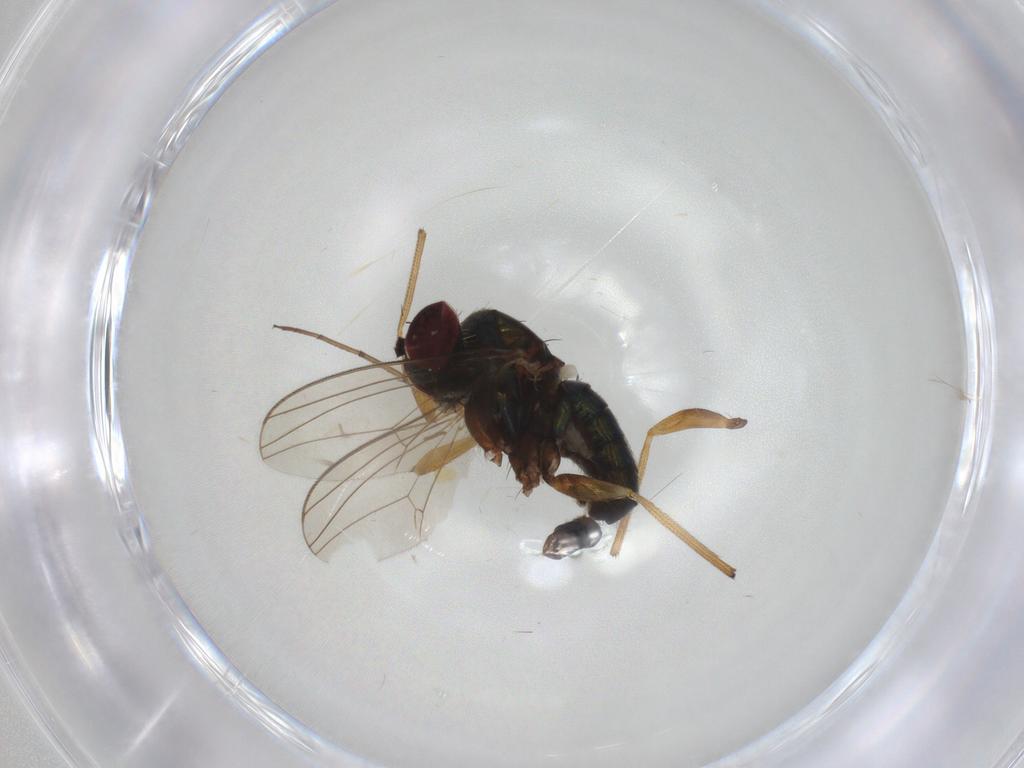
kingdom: Animalia
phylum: Arthropoda
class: Insecta
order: Diptera
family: Dolichopodidae
